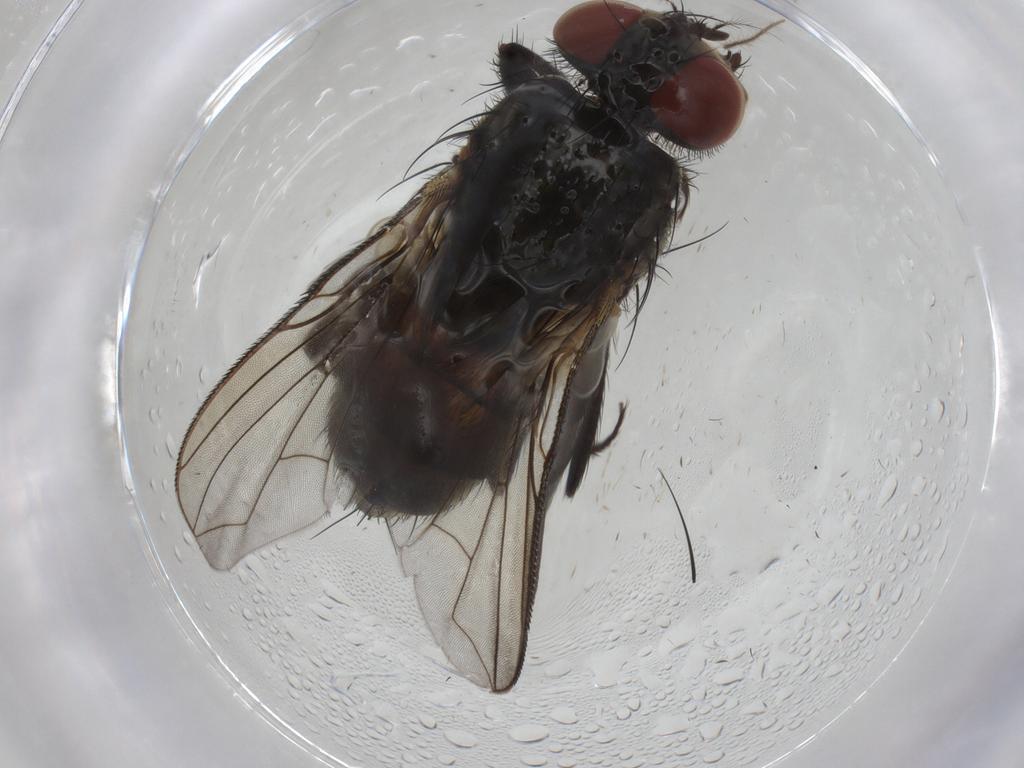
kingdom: Animalia
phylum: Arthropoda
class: Insecta
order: Diptera
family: Sarcophagidae
